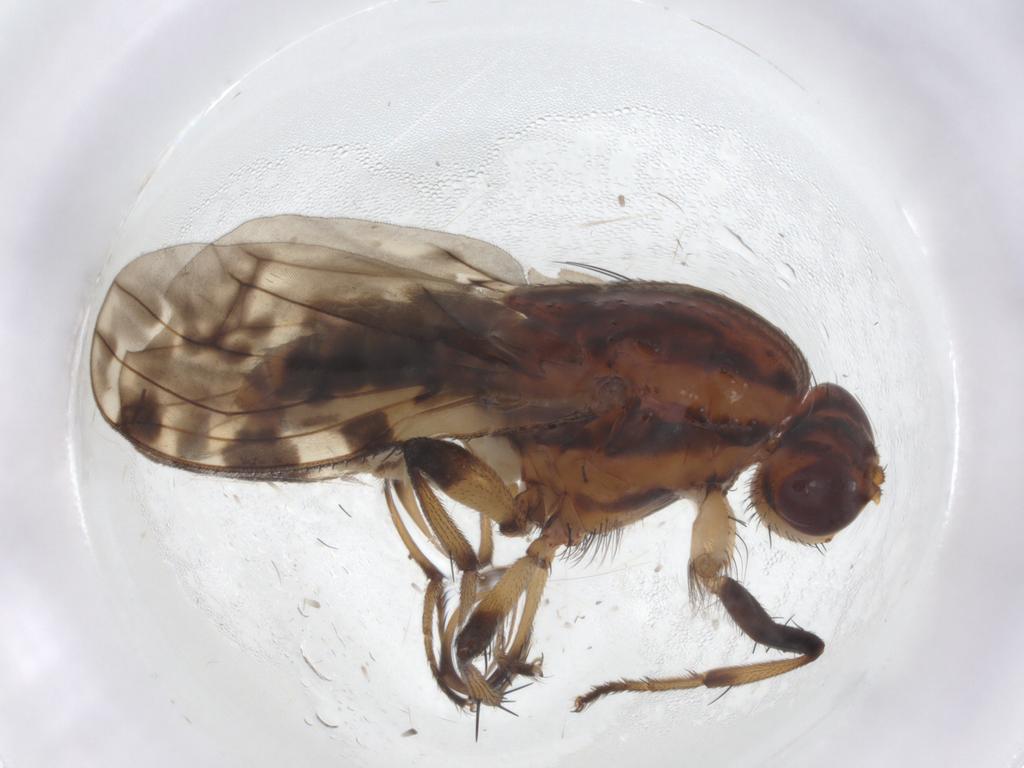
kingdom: Animalia
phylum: Arthropoda
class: Insecta
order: Diptera
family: Heleomyzidae
